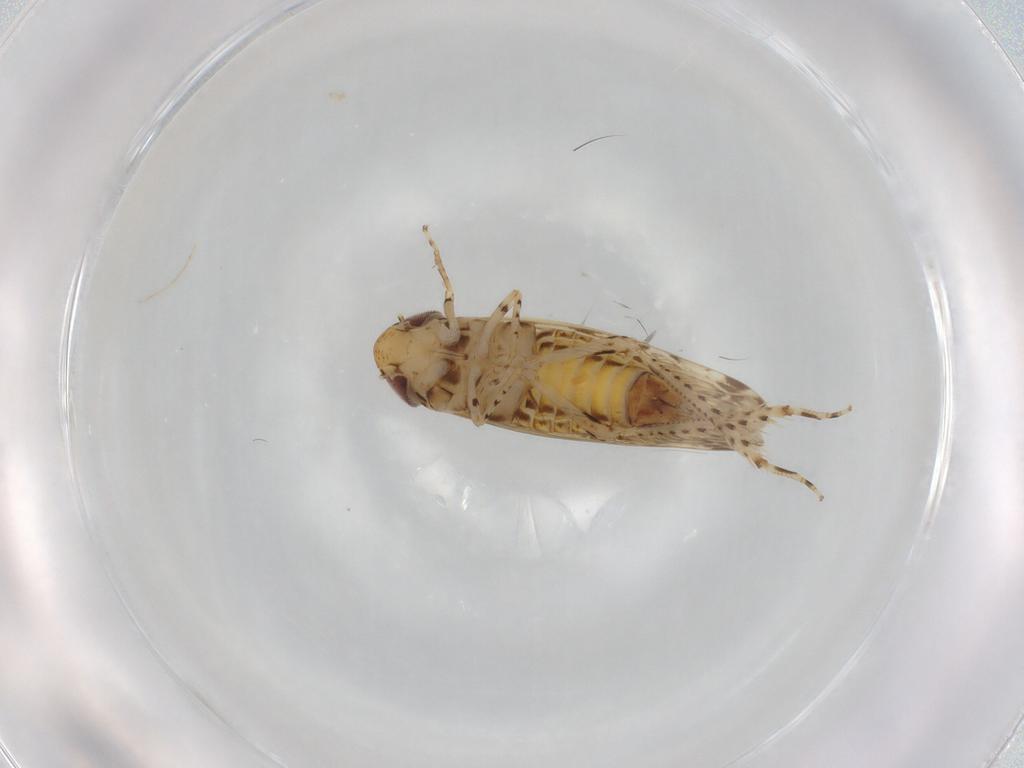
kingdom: Animalia
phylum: Arthropoda
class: Insecta
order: Hemiptera
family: Cicadellidae
